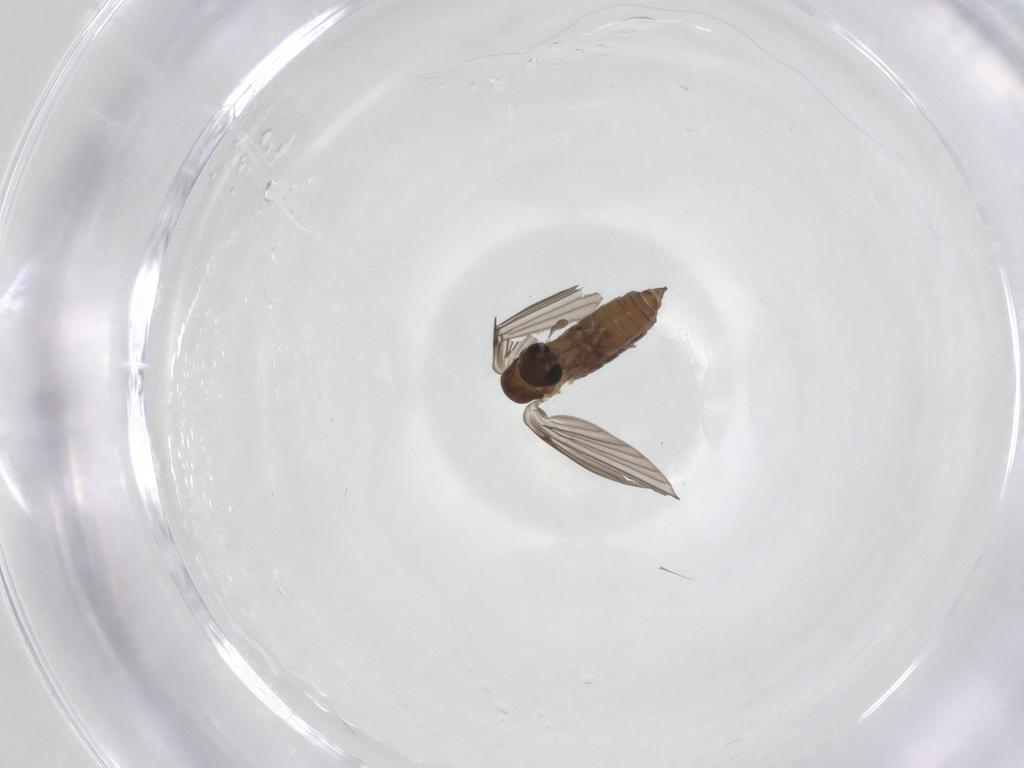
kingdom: Animalia
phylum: Arthropoda
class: Insecta
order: Diptera
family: Psychodidae
